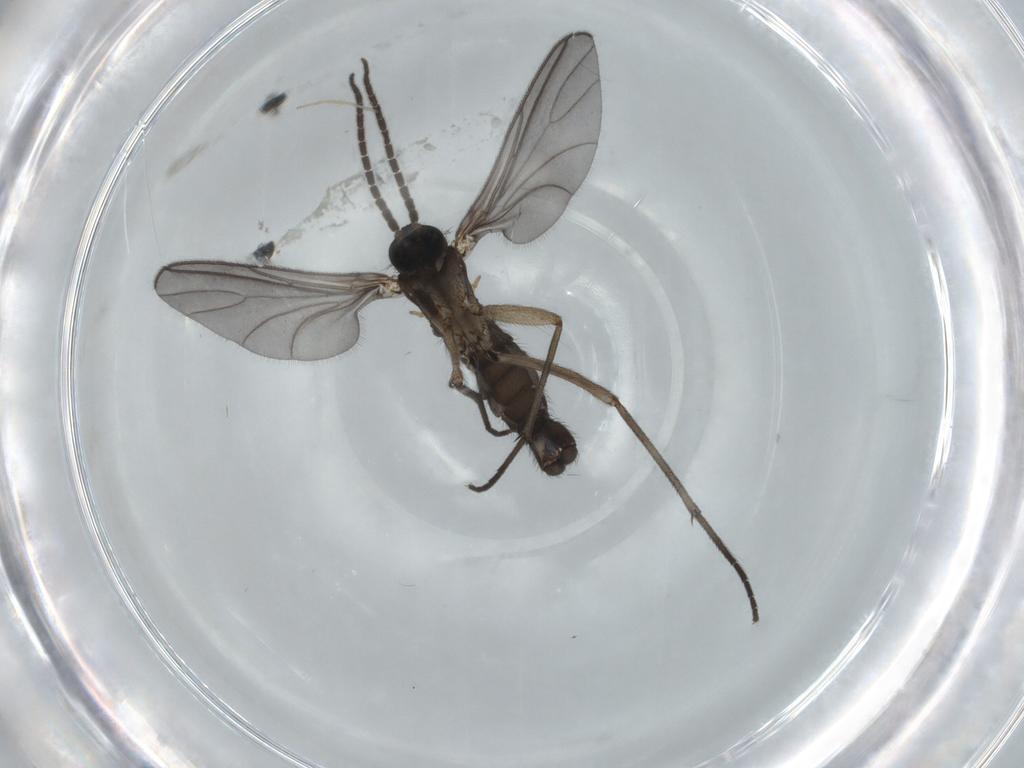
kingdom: Animalia
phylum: Arthropoda
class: Insecta
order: Diptera
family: Sciaridae
